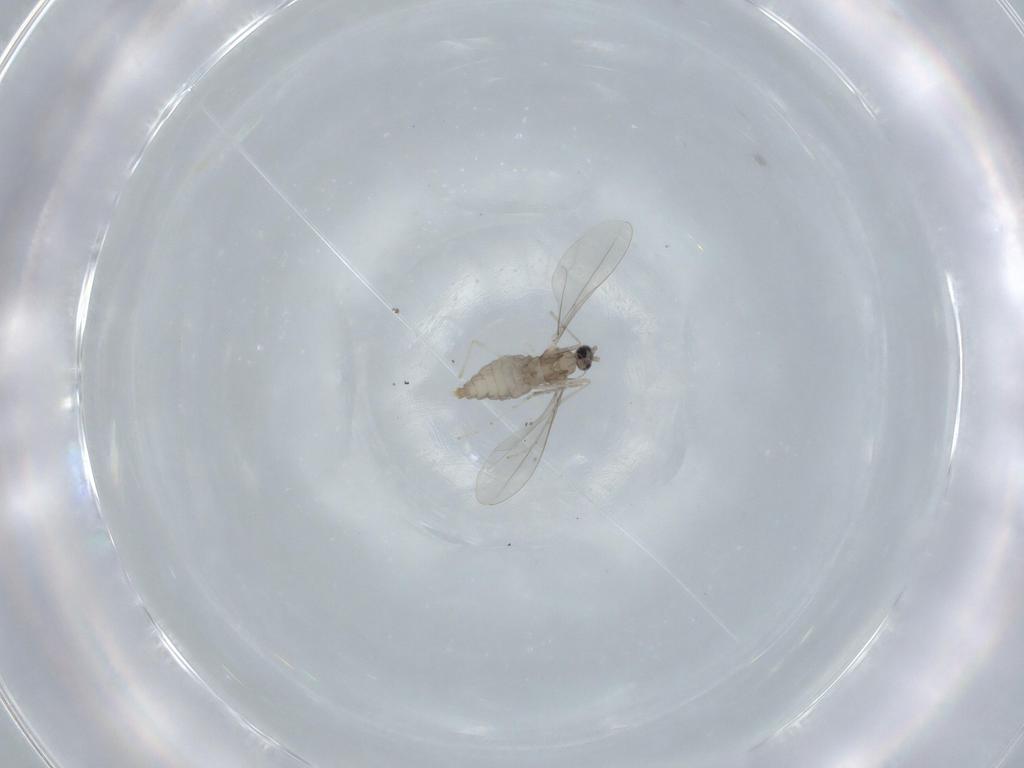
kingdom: Animalia
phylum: Arthropoda
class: Insecta
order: Diptera
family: Cecidomyiidae
